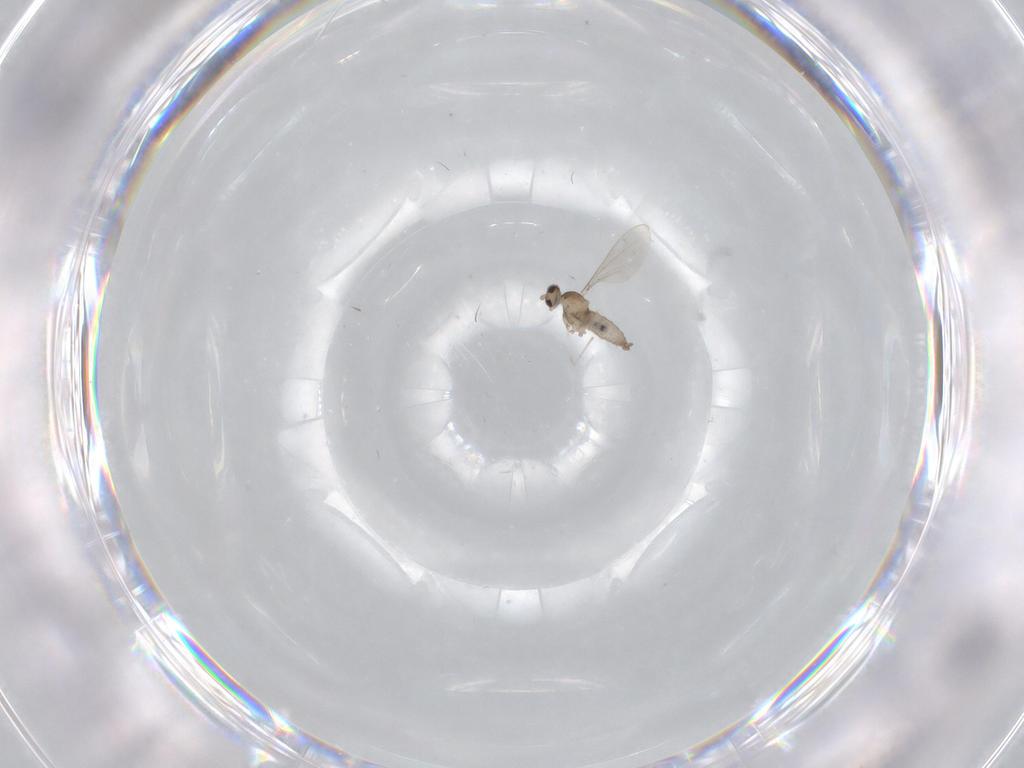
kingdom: Animalia
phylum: Arthropoda
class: Insecta
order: Diptera
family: Cecidomyiidae
